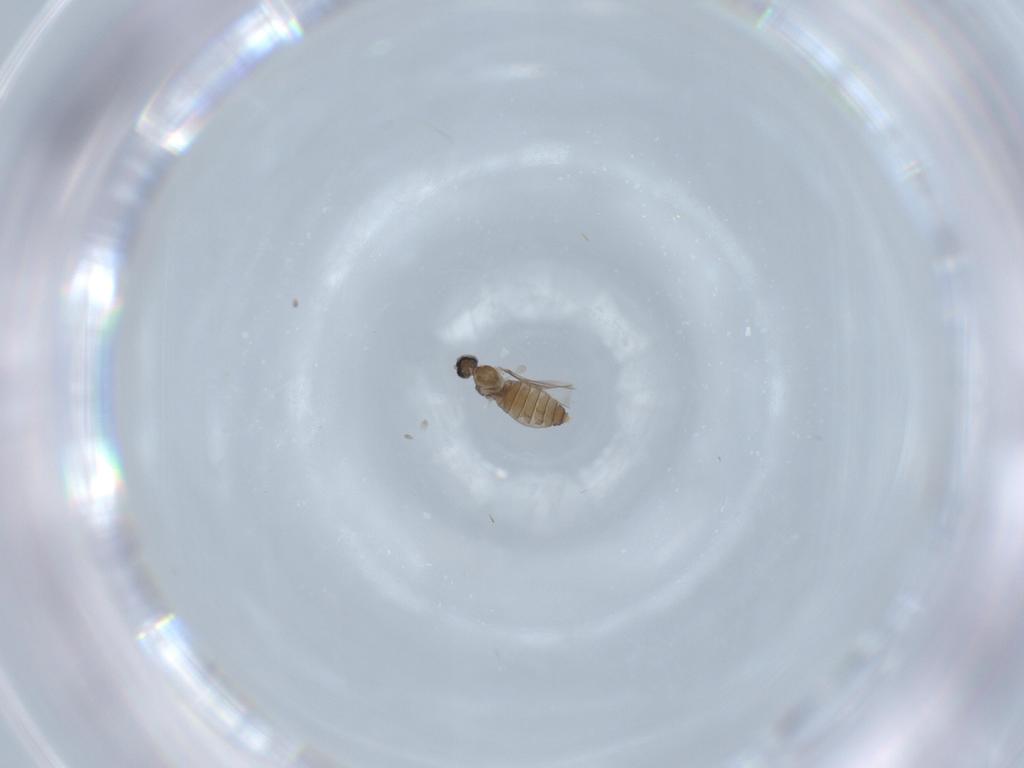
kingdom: Animalia
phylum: Arthropoda
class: Insecta
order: Diptera
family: Cecidomyiidae
